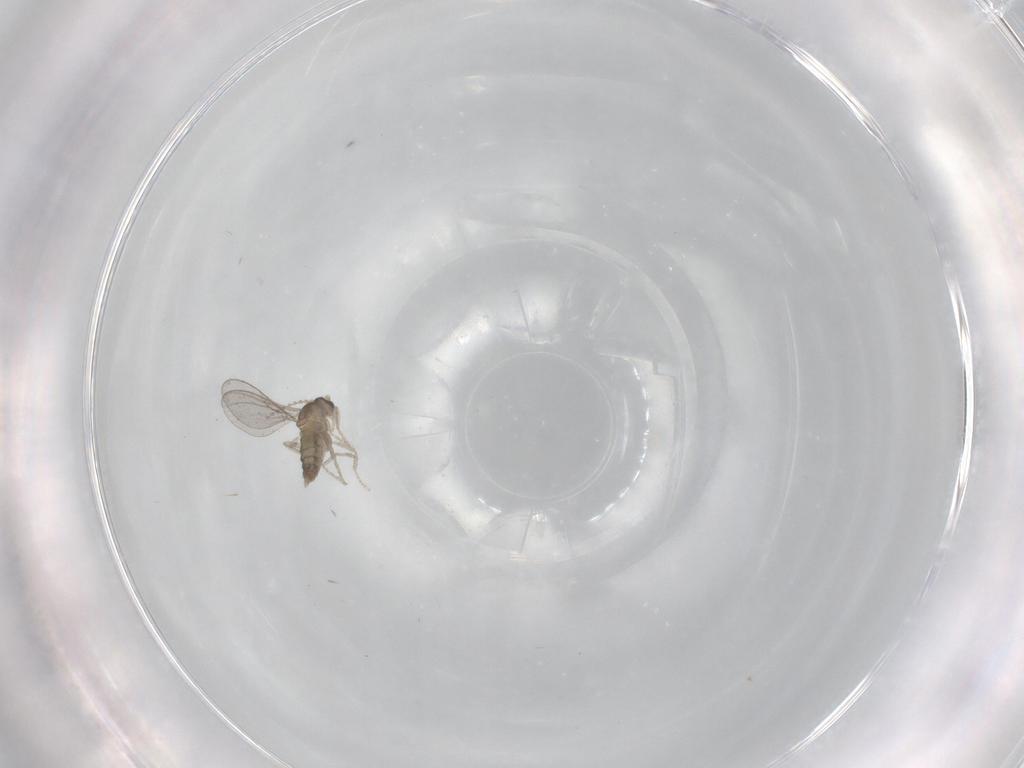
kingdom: Animalia
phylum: Arthropoda
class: Insecta
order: Diptera
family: Cecidomyiidae
